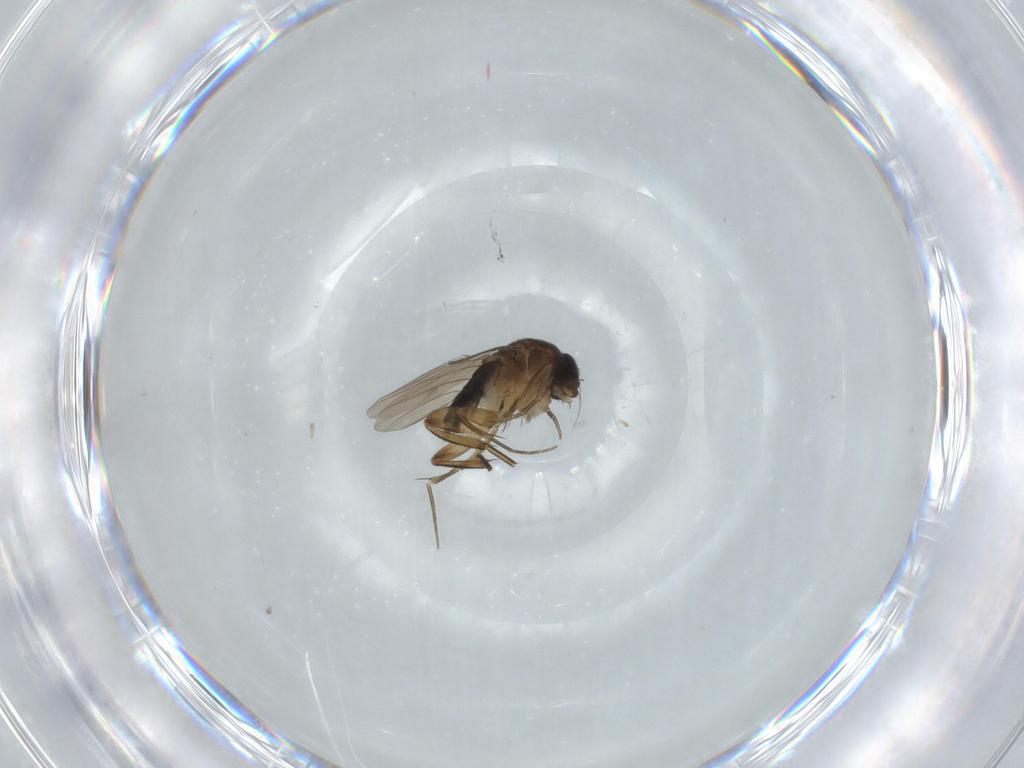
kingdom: Animalia
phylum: Arthropoda
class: Insecta
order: Diptera
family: Phoridae
